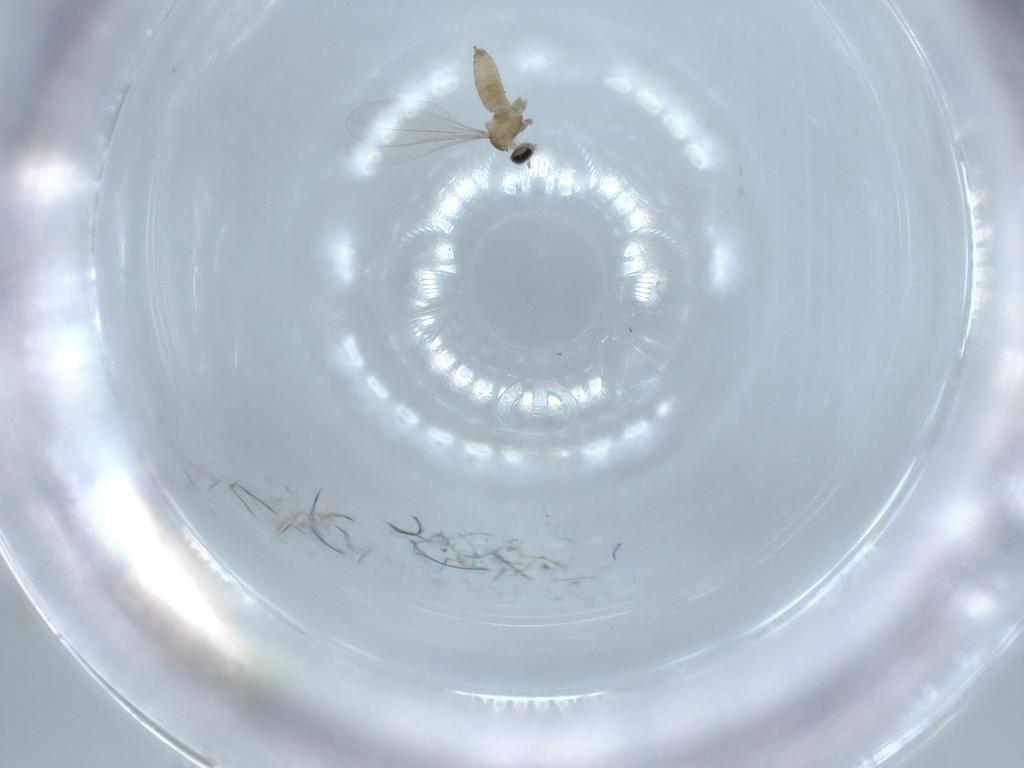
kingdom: Animalia
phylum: Arthropoda
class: Insecta
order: Diptera
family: Cecidomyiidae
